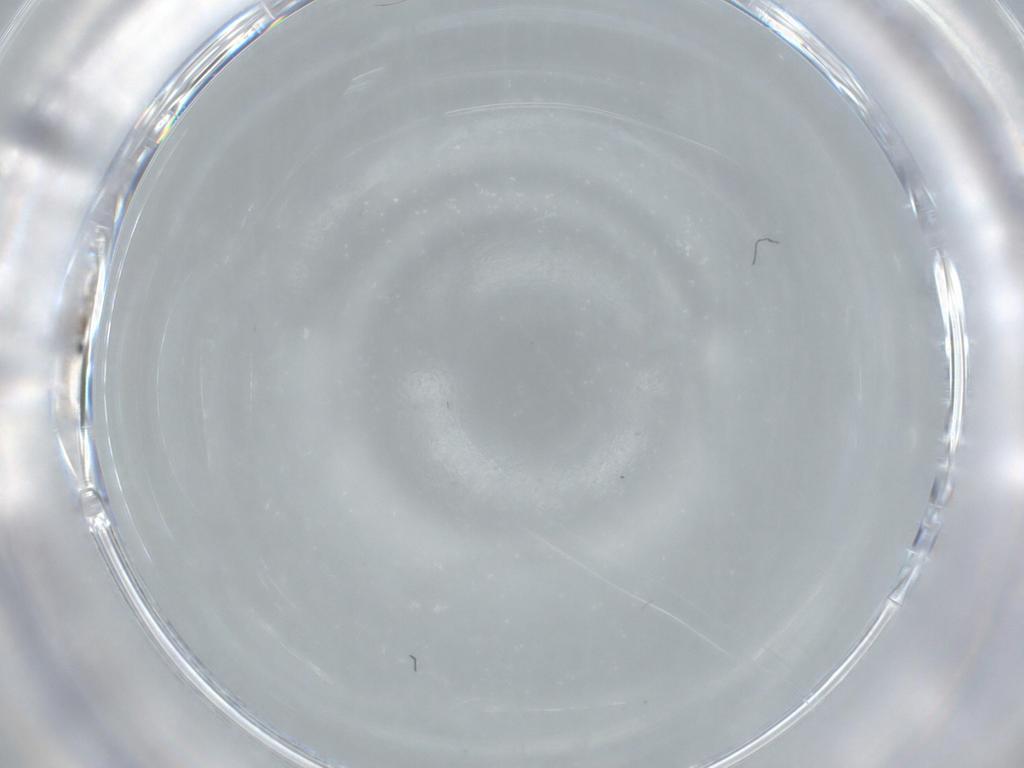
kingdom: Animalia
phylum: Arthropoda
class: Insecta
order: Diptera
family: Cecidomyiidae
